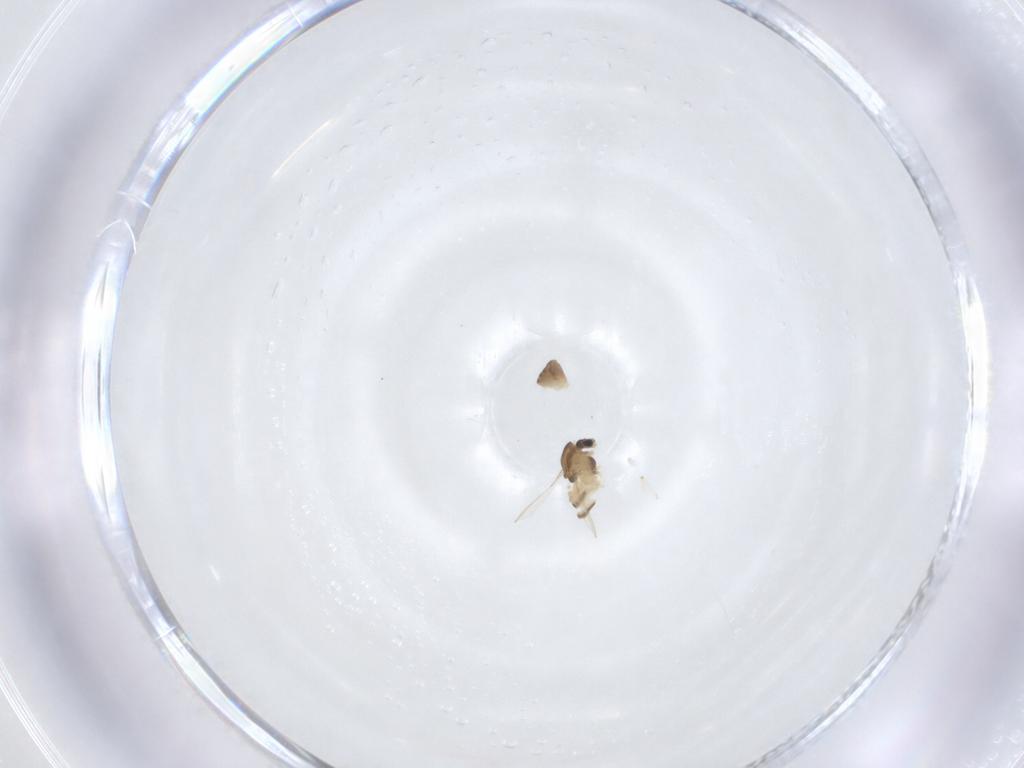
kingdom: Animalia
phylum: Arthropoda
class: Insecta
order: Diptera
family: Chironomidae
